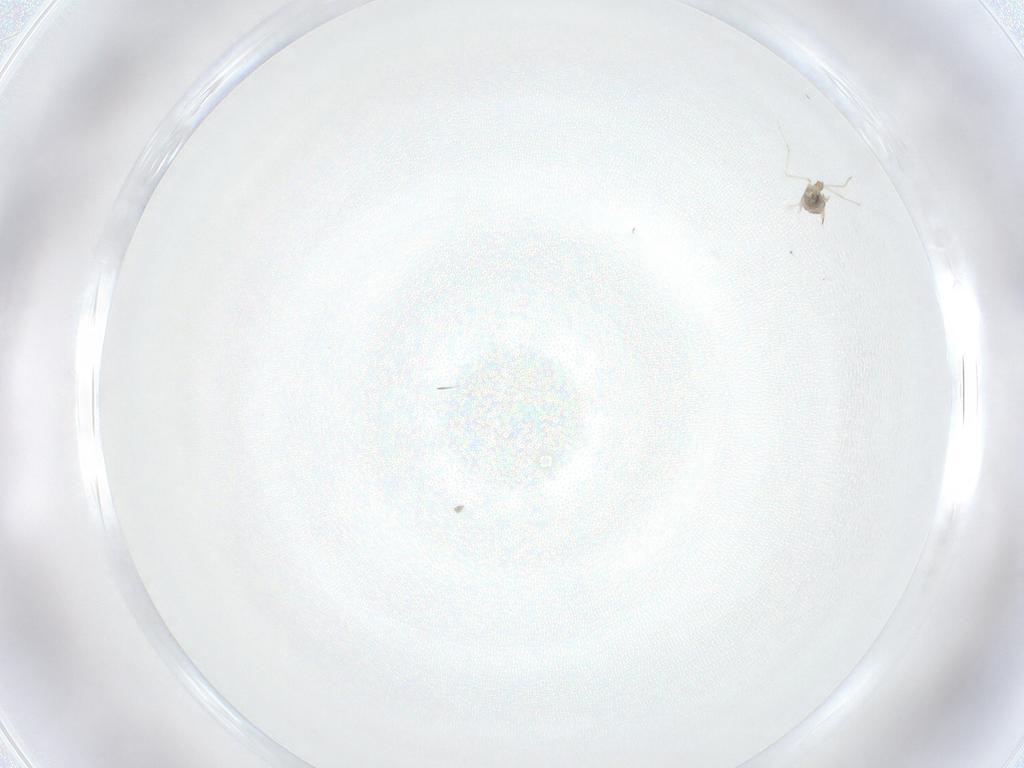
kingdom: Animalia
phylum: Arthropoda
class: Insecta
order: Diptera
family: Cecidomyiidae
